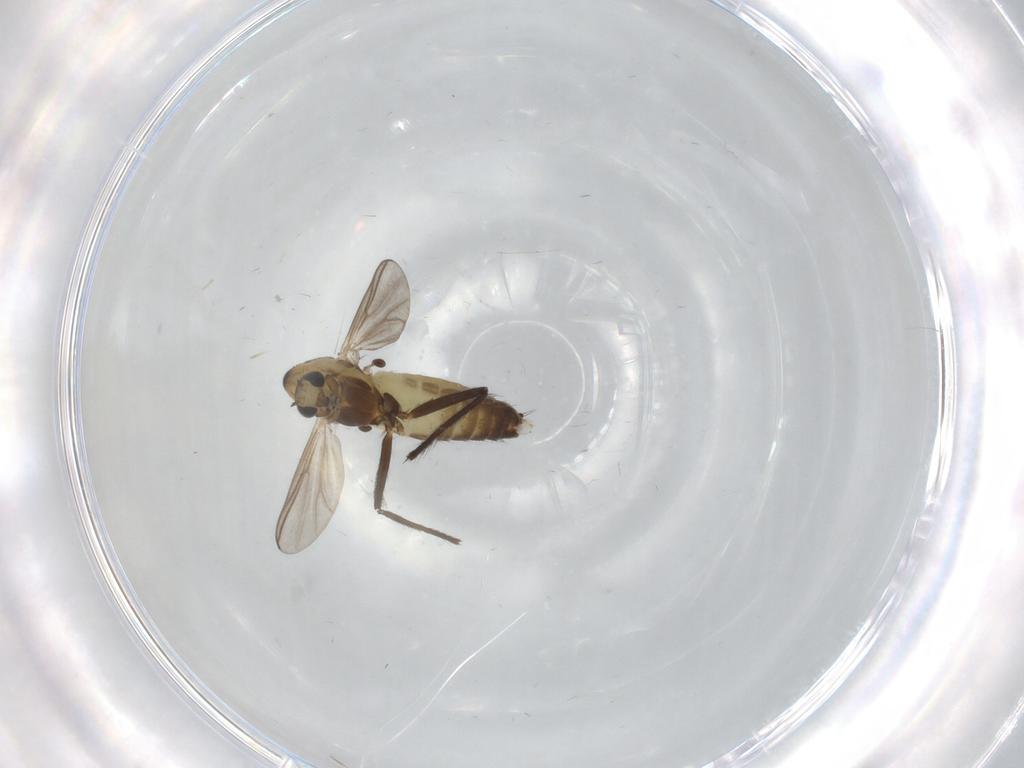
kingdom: Animalia
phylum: Arthropoda
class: Insecta
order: Diptera
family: Chironomidae
